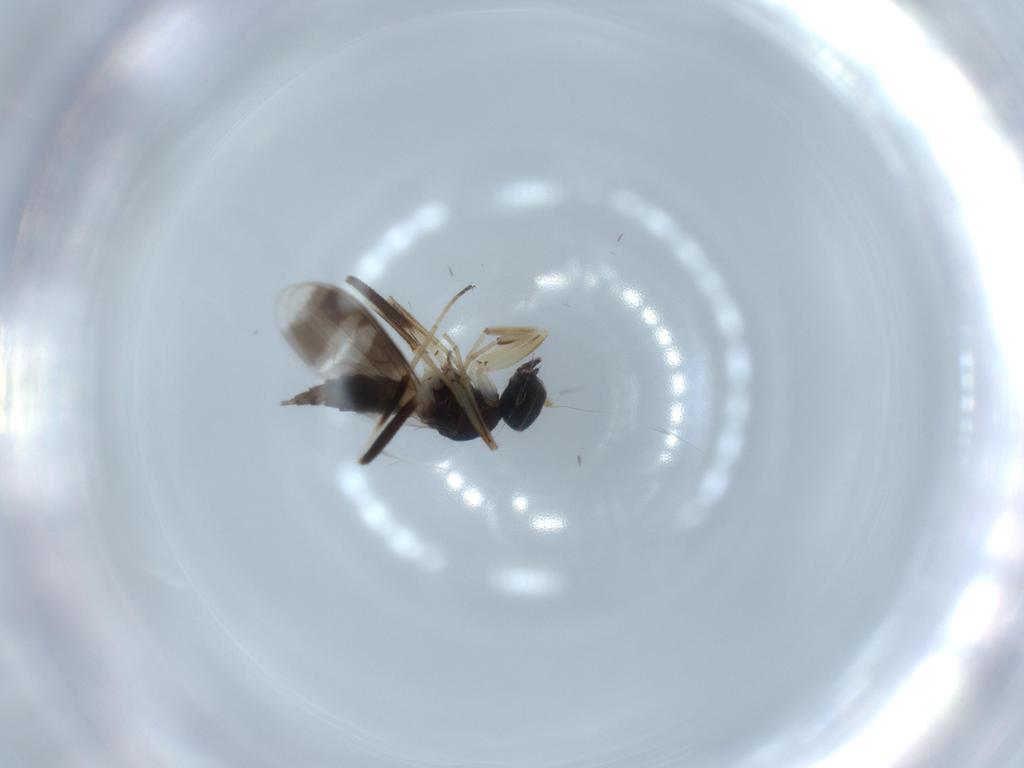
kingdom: Animalia
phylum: Arthropoda
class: Insecta
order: Diptera
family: Hybotidae
